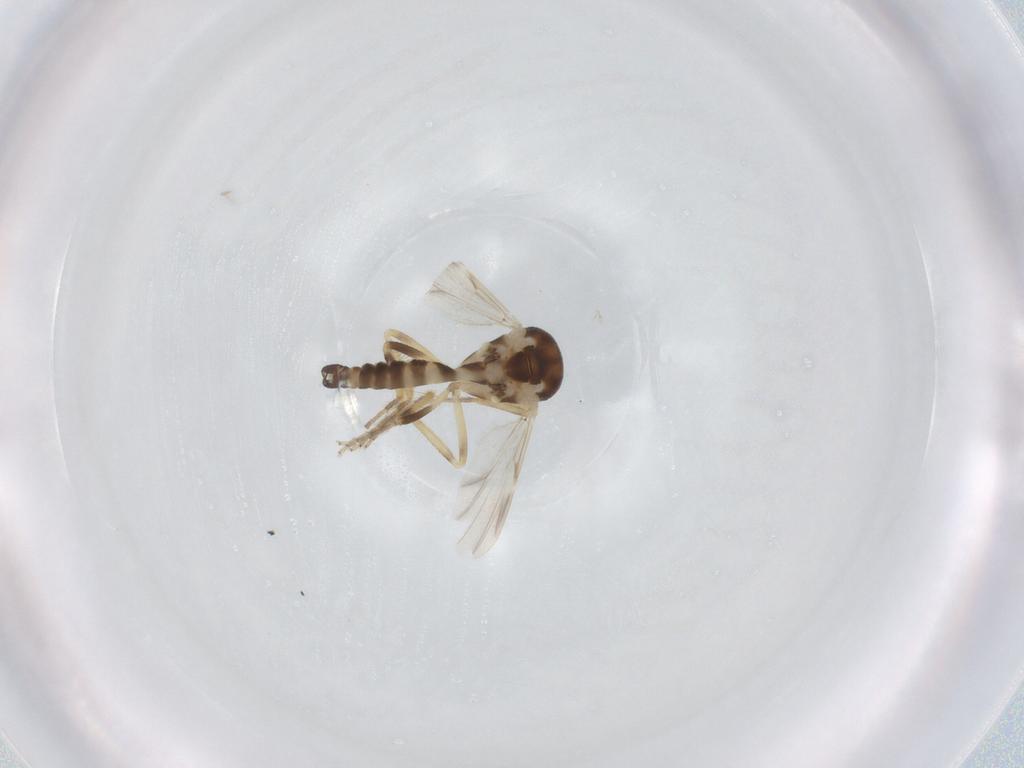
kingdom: Animalia
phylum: Arthropoda
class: Insecta
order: Diptera
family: Ceratopogonidae
